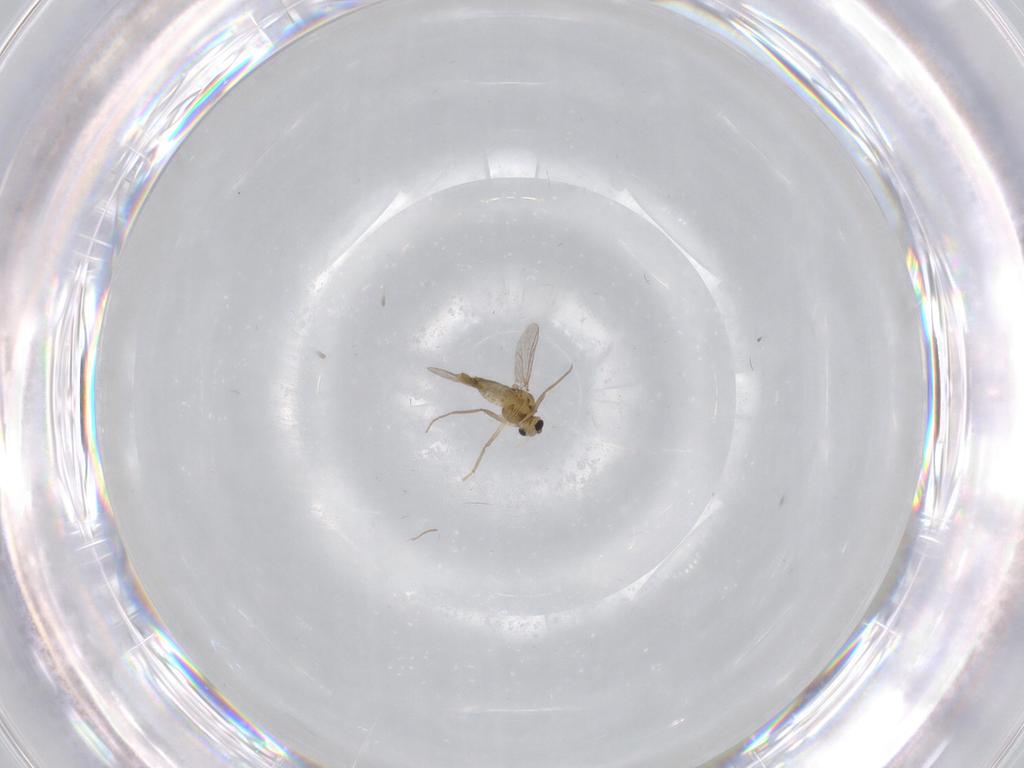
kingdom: Animalia
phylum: Arthropoda
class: Insecta
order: Diptera
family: Chironomidae
